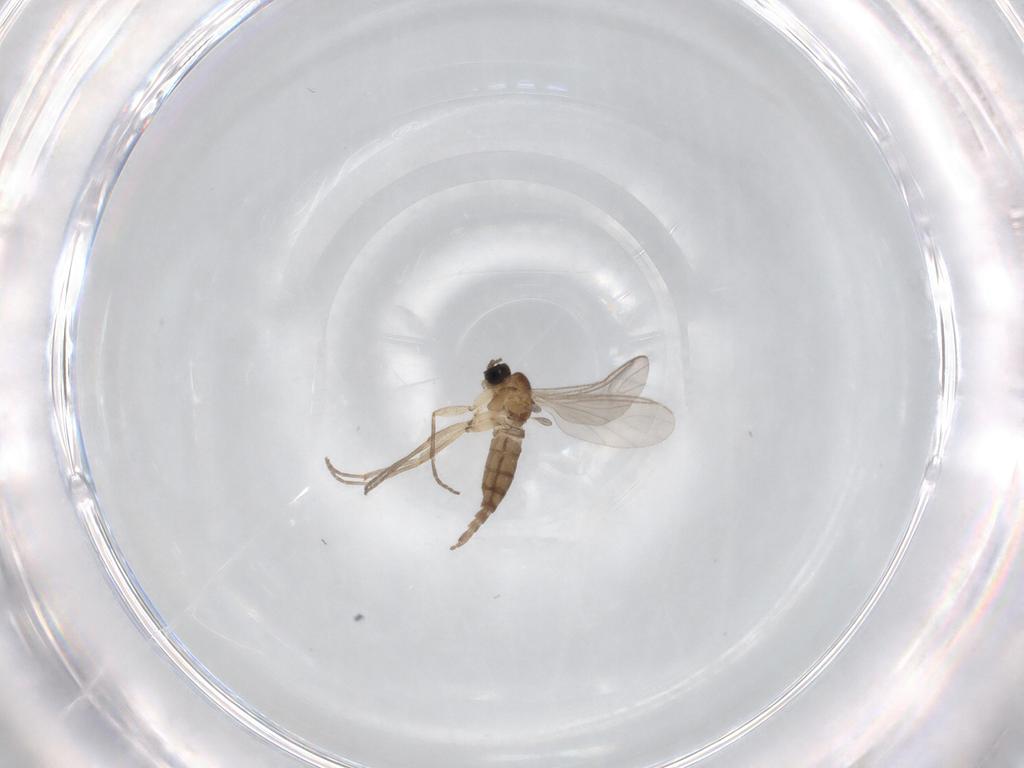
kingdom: Animalia
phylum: Arthropoda
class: Insecta
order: Diptera
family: Sciaridae
